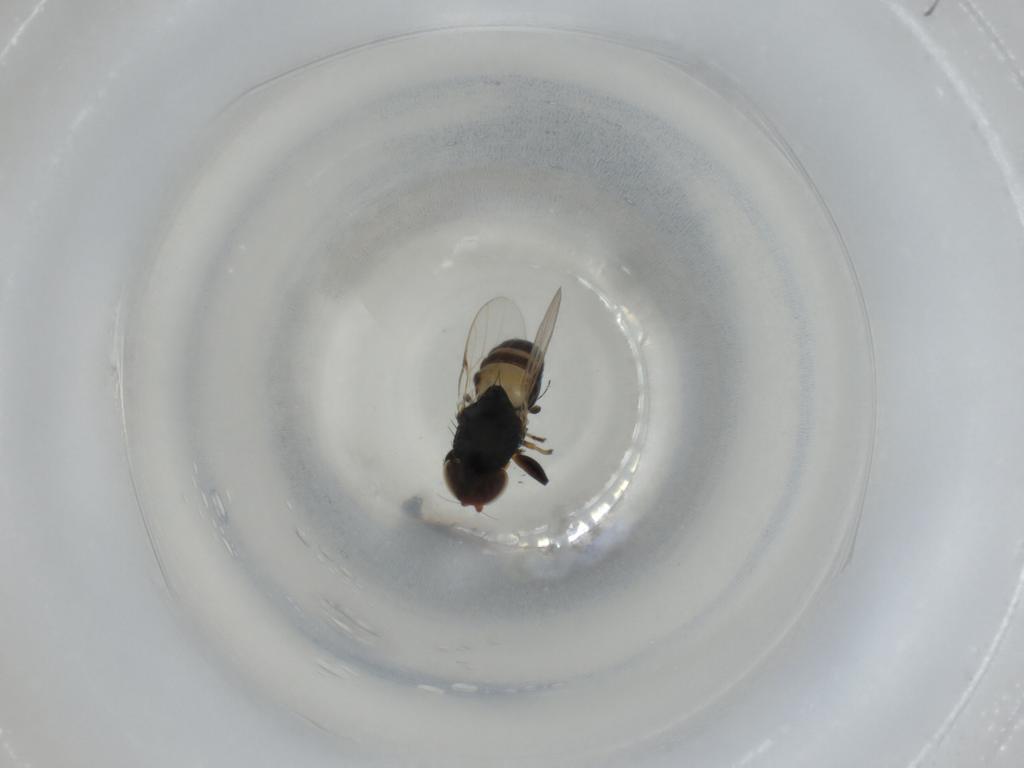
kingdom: Animalia
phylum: Arthropoda
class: Insecta
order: Diptera
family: Chloropidae
